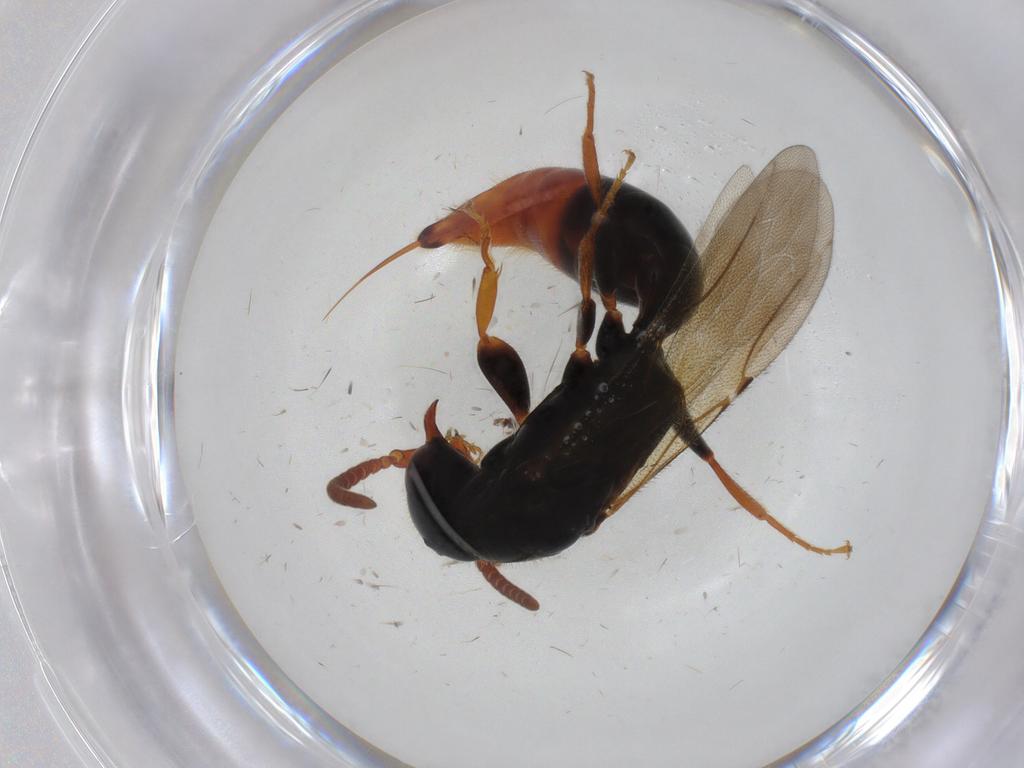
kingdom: Animalia
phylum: Arthropoda
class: Insecta
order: Hymenoptera
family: Bethylidae
